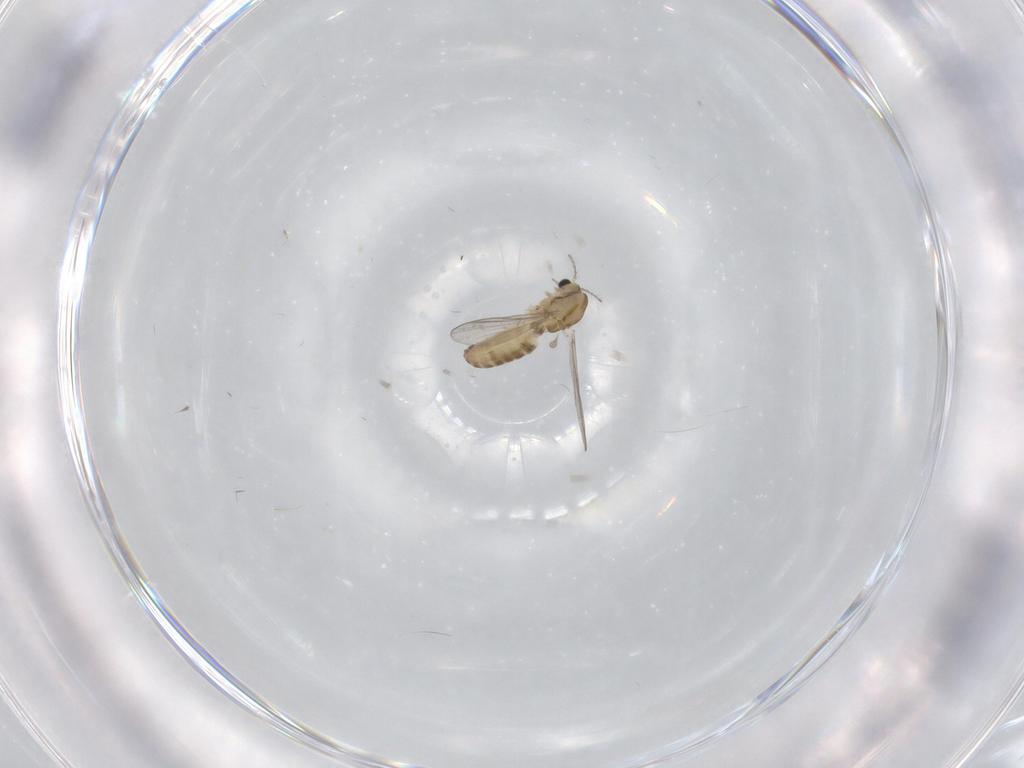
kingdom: Animalia
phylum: Arthropoda
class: Insecta
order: Diptera
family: Chironomidae
